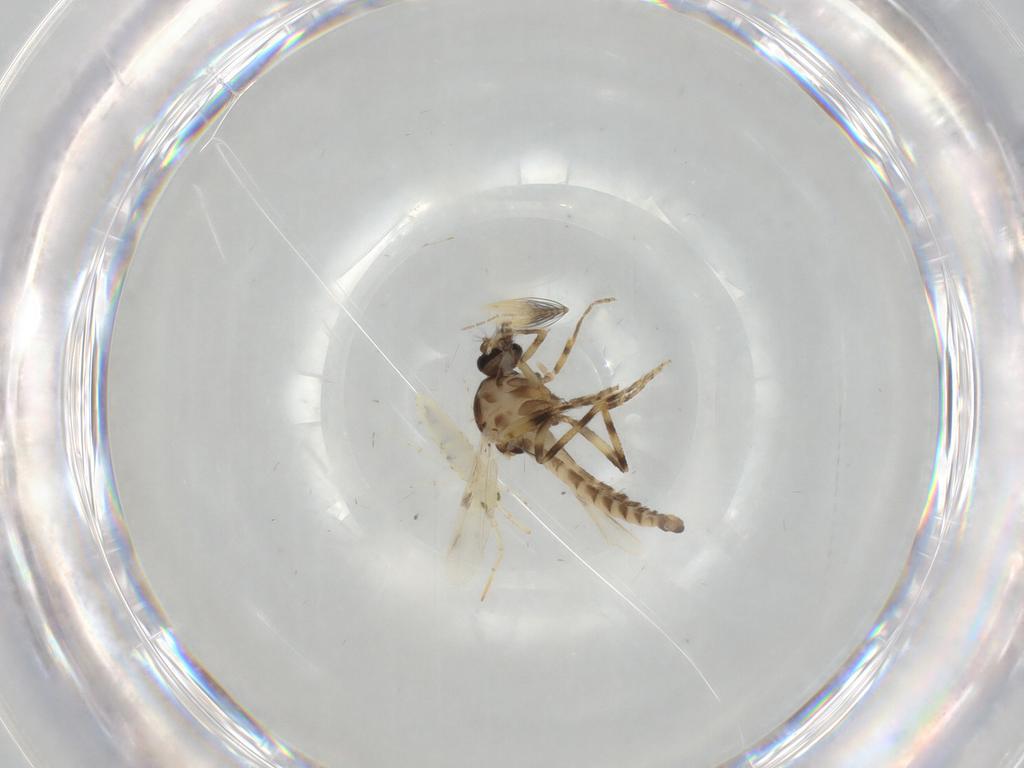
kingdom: Animalia
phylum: Arthropoda
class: Insecta
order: Diptera
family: Ceratopogonidae
